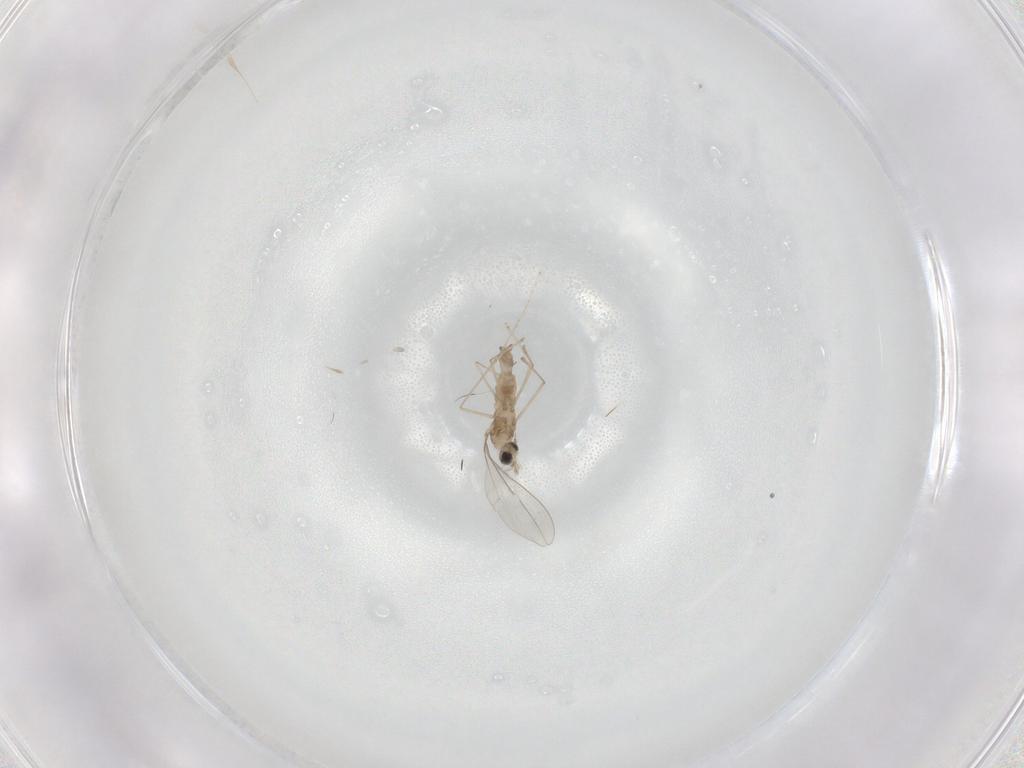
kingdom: Animalia
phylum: Arthropoda
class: Insecta
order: Diptera
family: Cecidomyiidae
